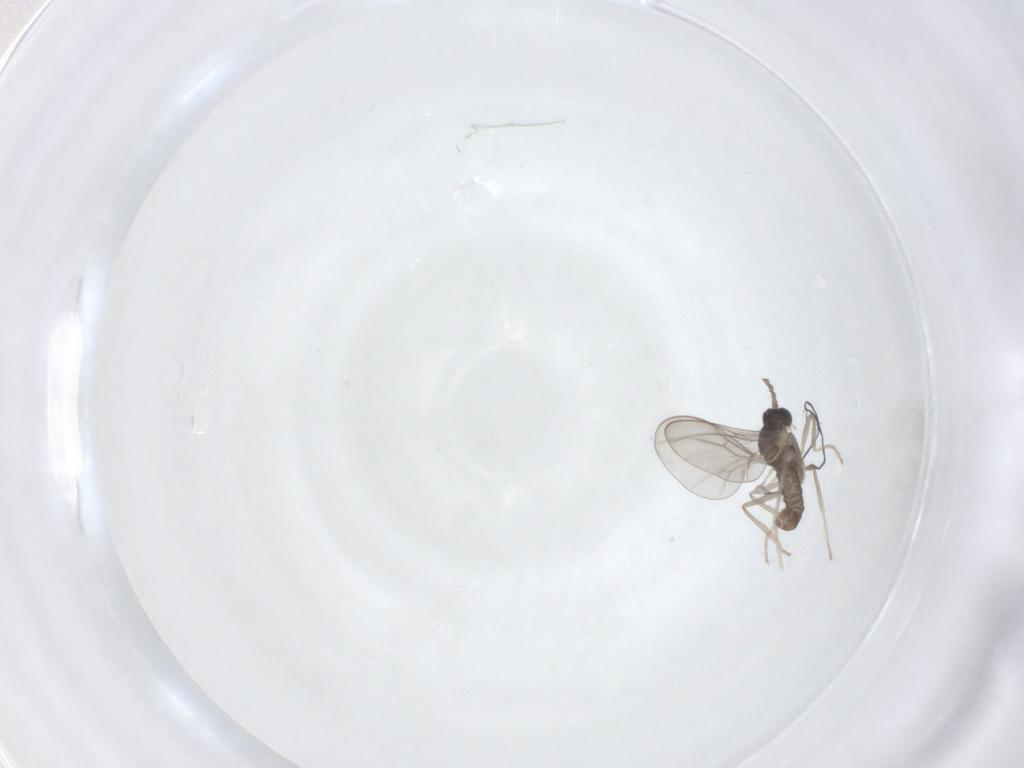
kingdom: Animalia
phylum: Arthropoda
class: Insecta
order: Diptera
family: Cecidomyiidae
